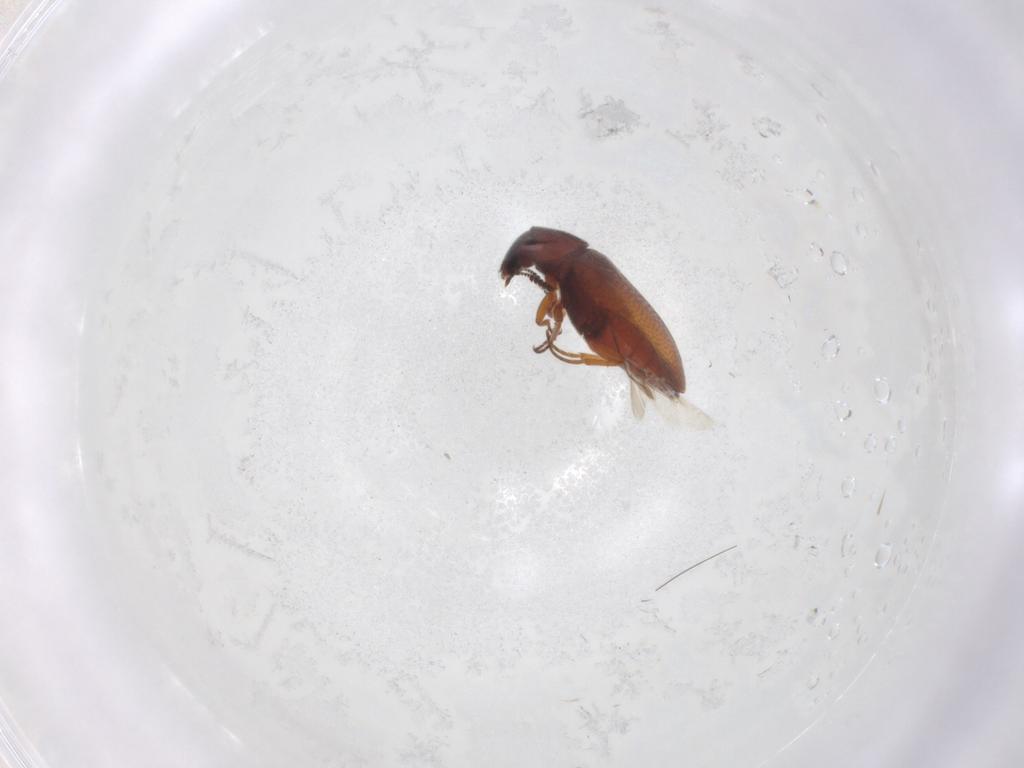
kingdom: Animalia
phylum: Arthropoda
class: Insecta
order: Coleoptera
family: Rhadalidae
